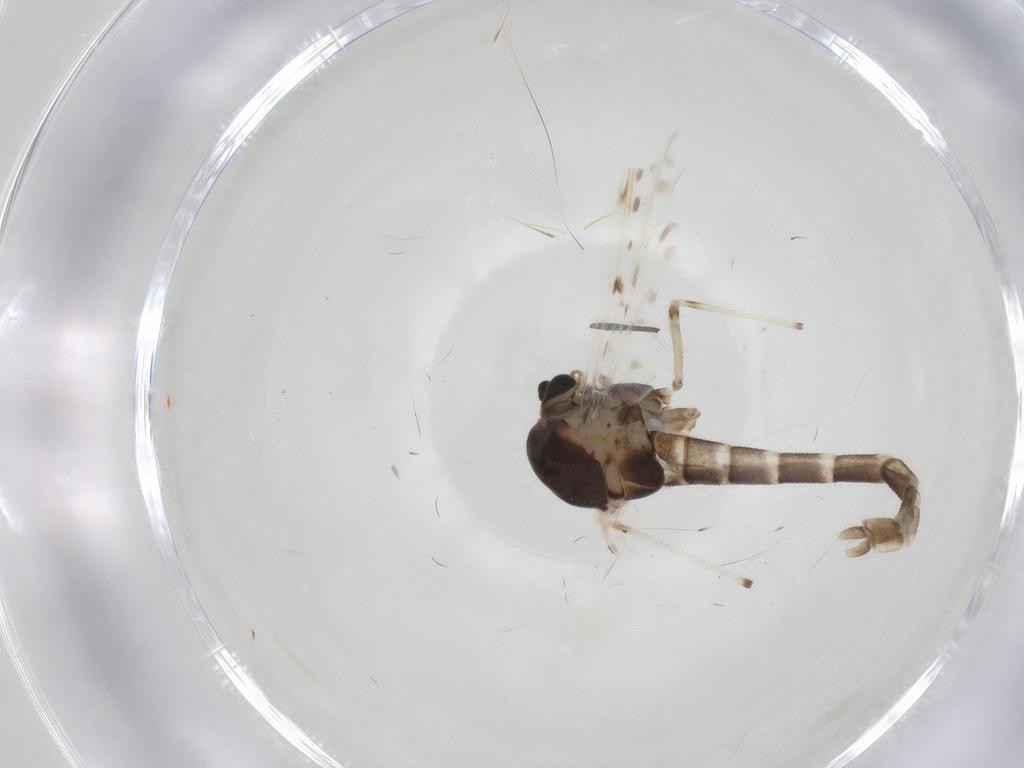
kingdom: Animalia
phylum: Arthropoda
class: Insecta
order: Diptera
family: Chironomidae
